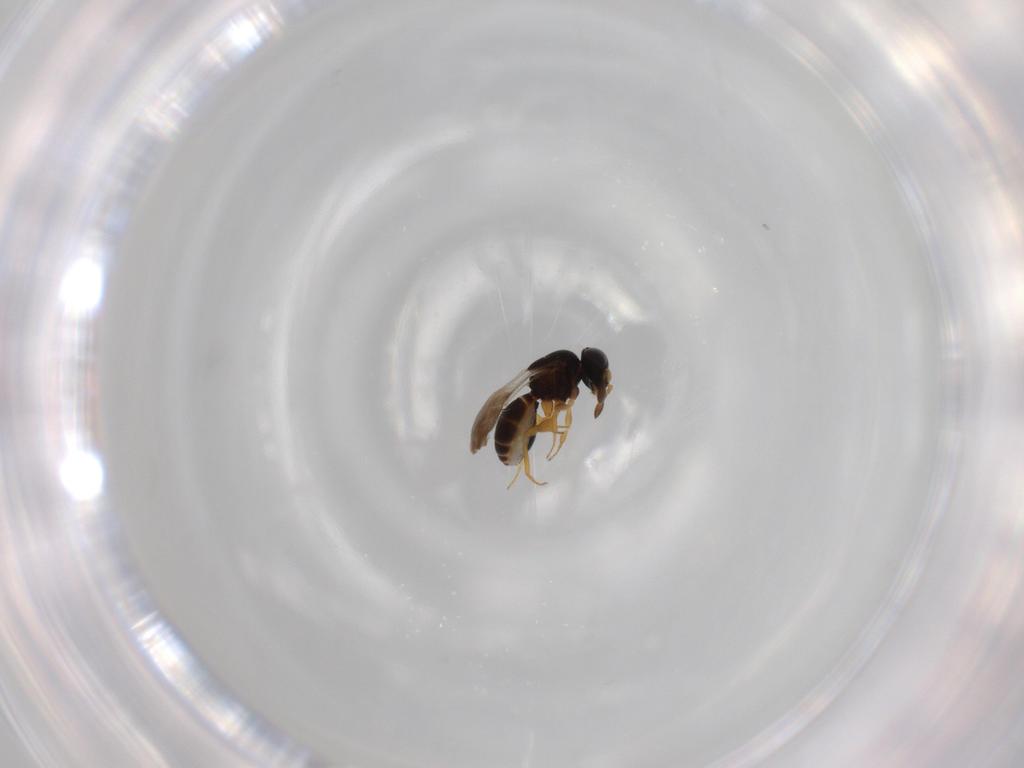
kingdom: Animalia
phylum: Arthropoda
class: Insecta
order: Hymenoptera
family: Scelionidae
